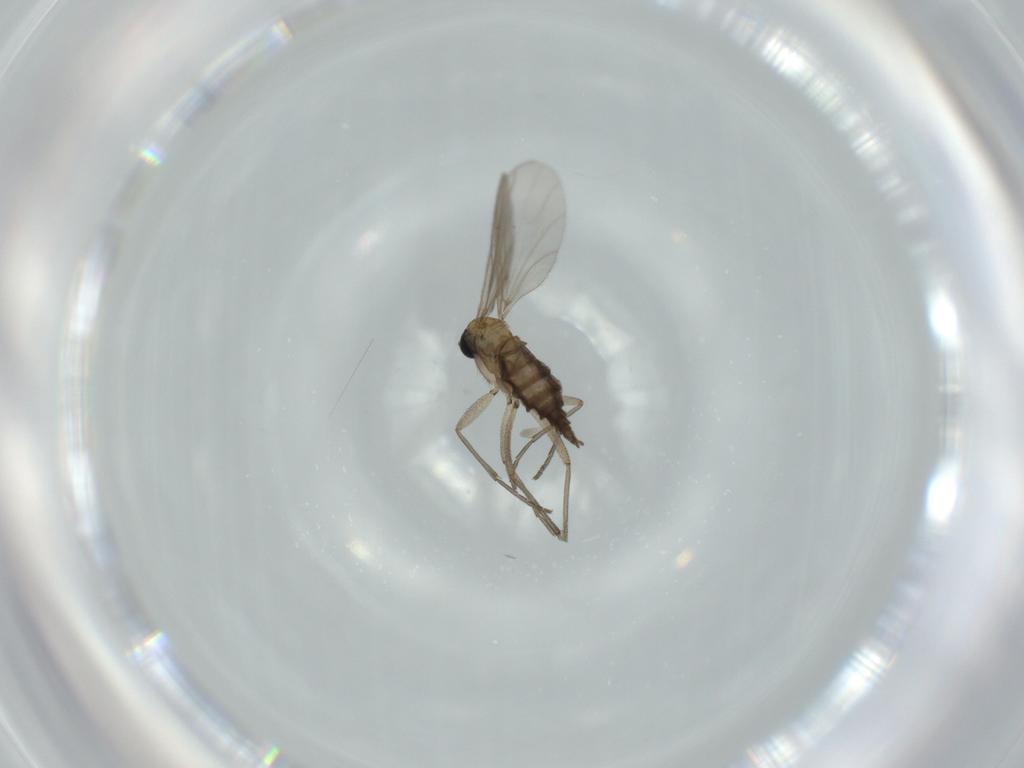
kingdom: Animalia
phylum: Arthropoda
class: Insecta
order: Diptera
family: Sciaridae
